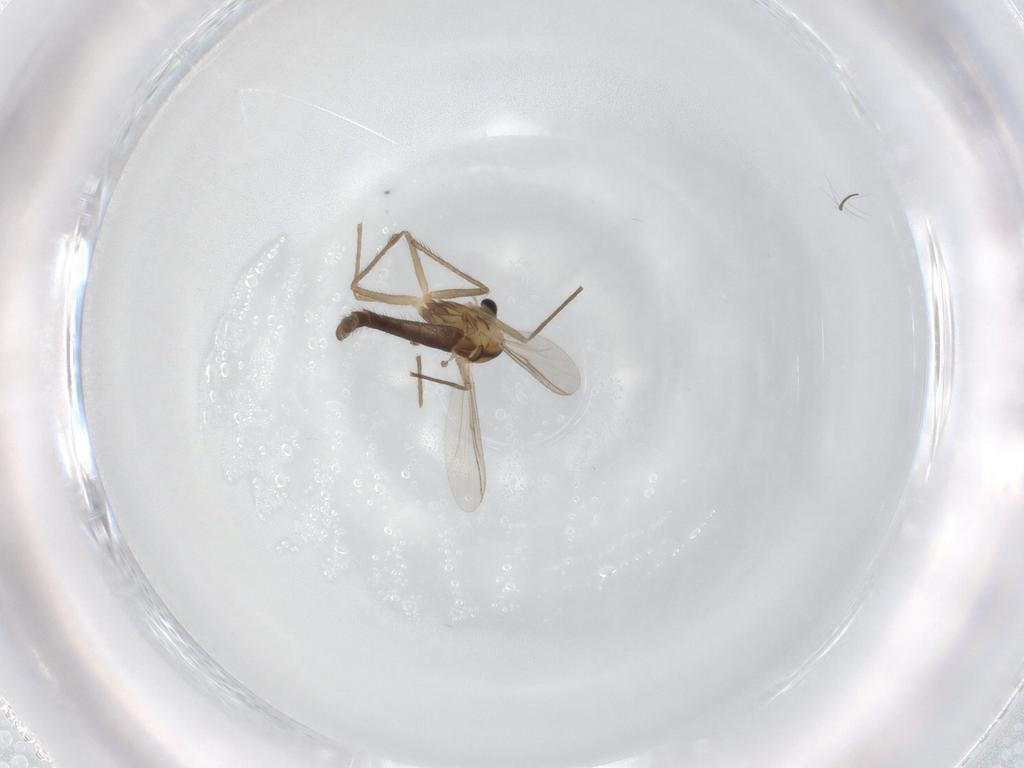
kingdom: Animalia
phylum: Arthropoda
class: Insecta
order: Diptera
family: Chironomidae
